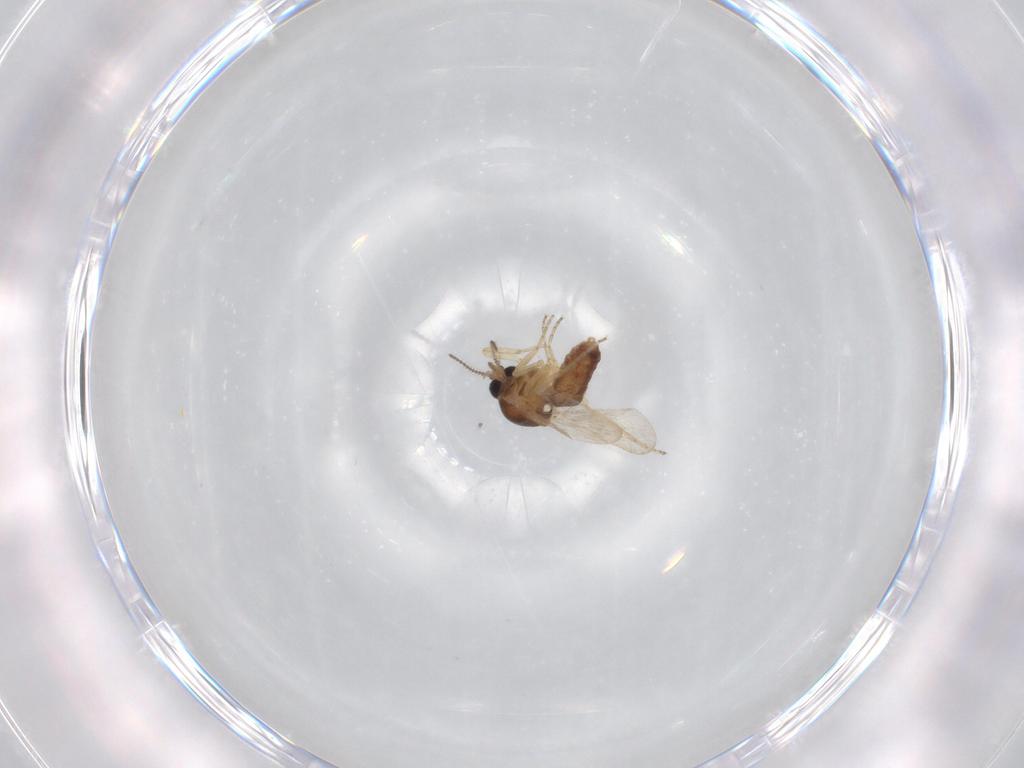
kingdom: Animalia
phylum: Arthropoda
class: Insecta
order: Diptera
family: Ceratopogonidae
